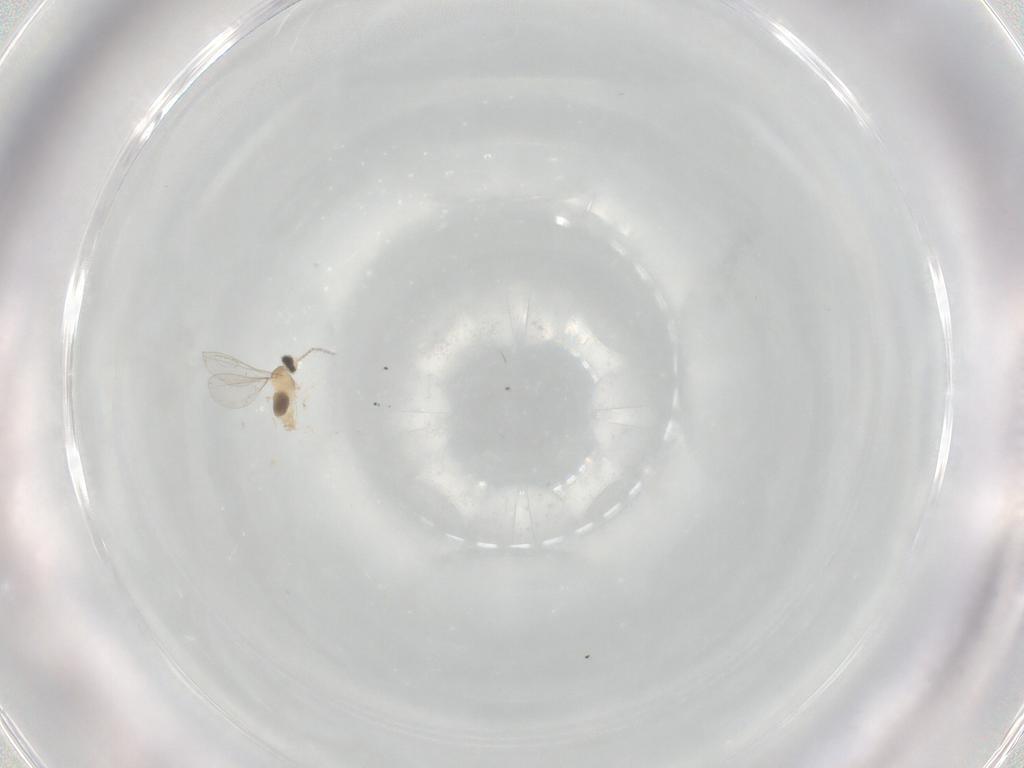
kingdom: Animalia
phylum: Arthropoda
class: Insecta
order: Diptera
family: Cecidomyiidae
